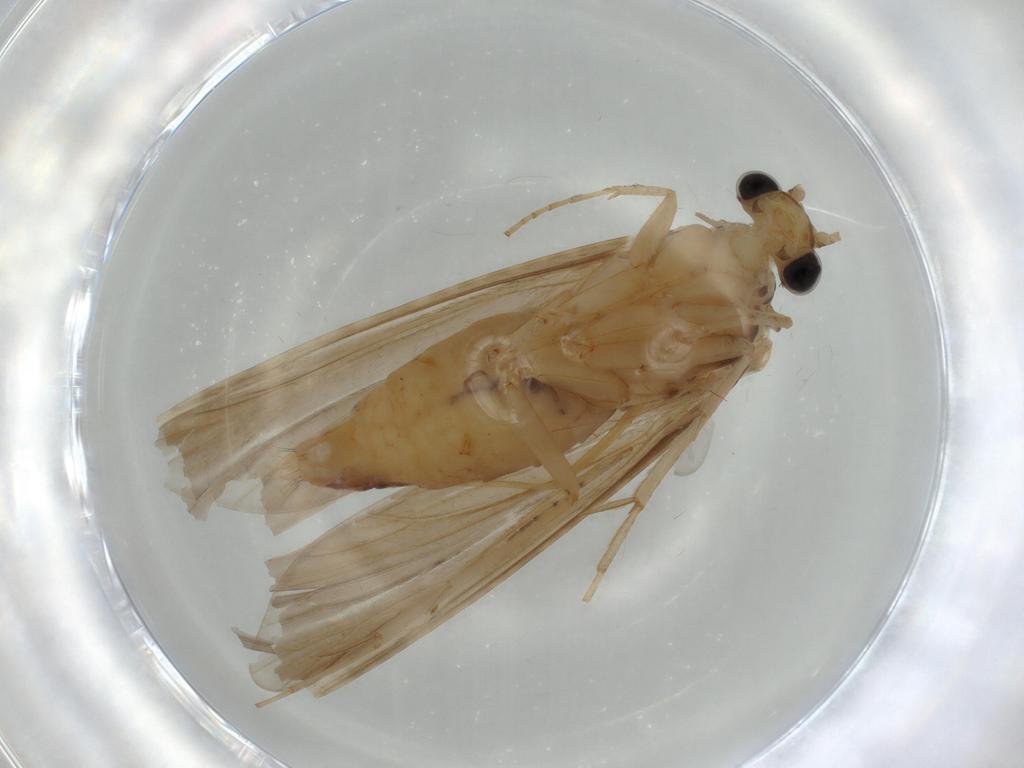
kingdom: Animalia
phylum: Arthropoda
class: Insecta
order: Trichoptera
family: Ecnomidae
